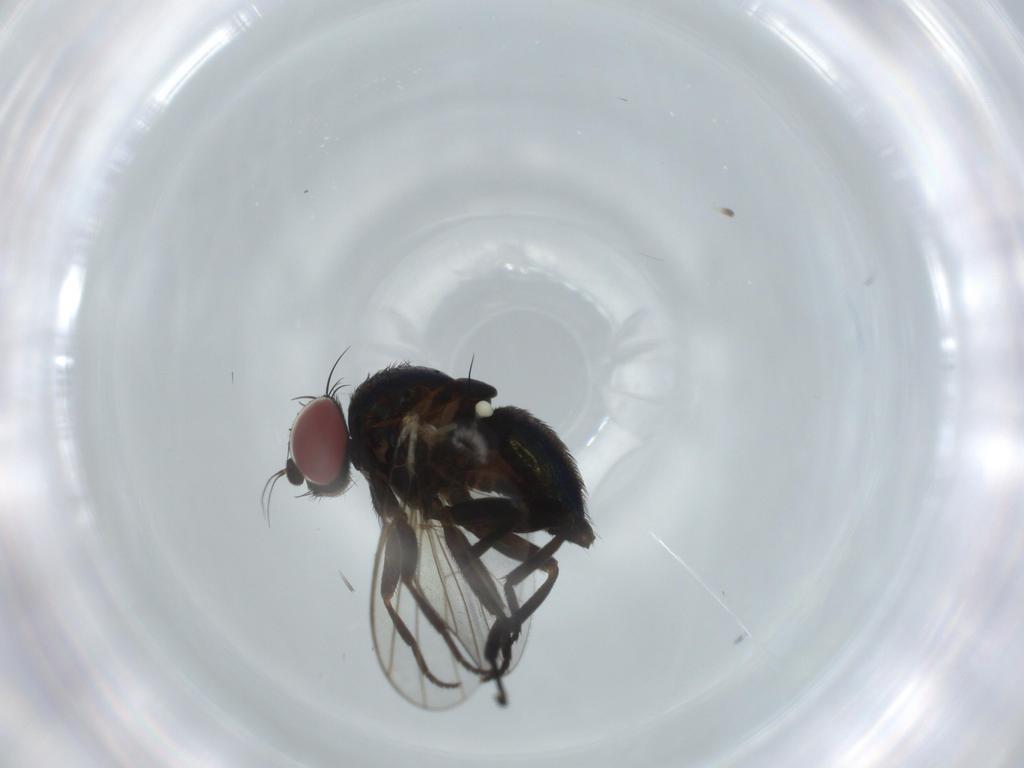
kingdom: Animalia
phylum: Arthropoda
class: Insecta
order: Diptera
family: Agromyzidae
